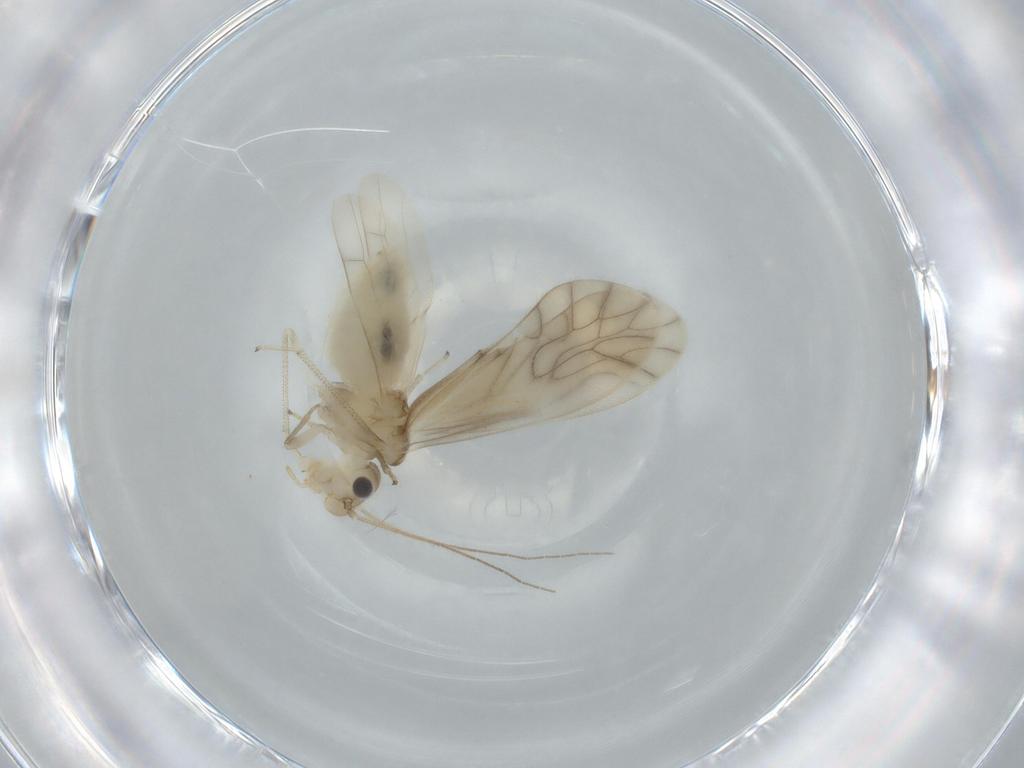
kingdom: Animalia
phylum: Arthropoda
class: Insecta
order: Psocodea
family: Caeciliusidae
